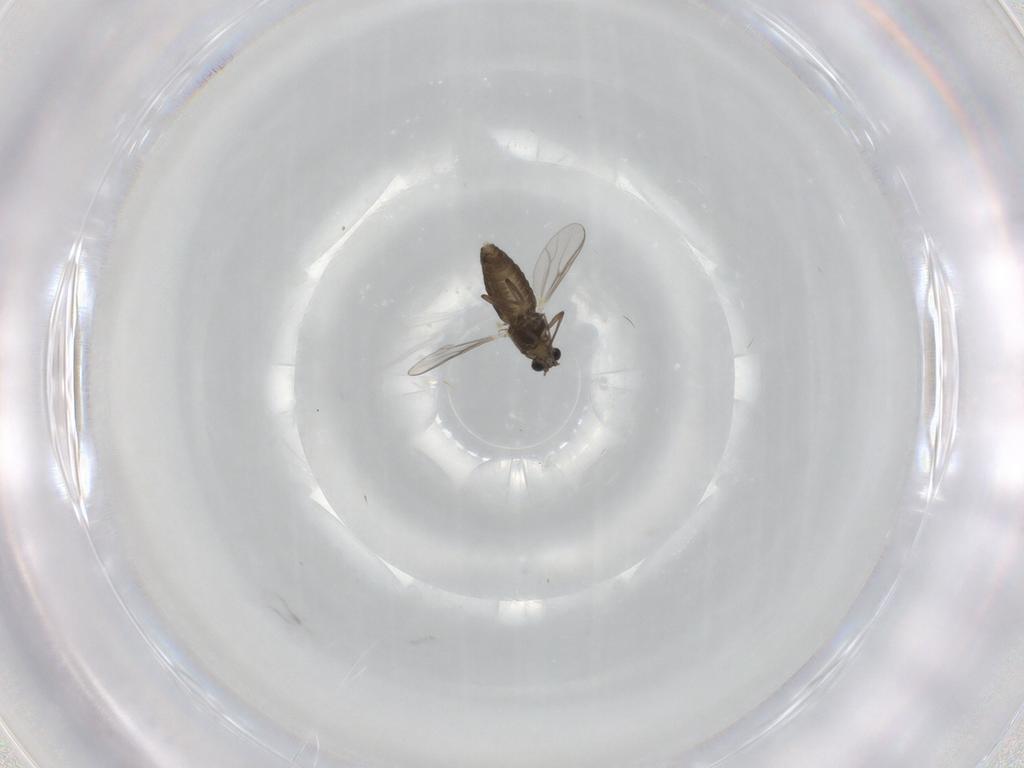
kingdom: Animalia
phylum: Arthropoda
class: Insecta
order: Diptera
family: Chironomidae
